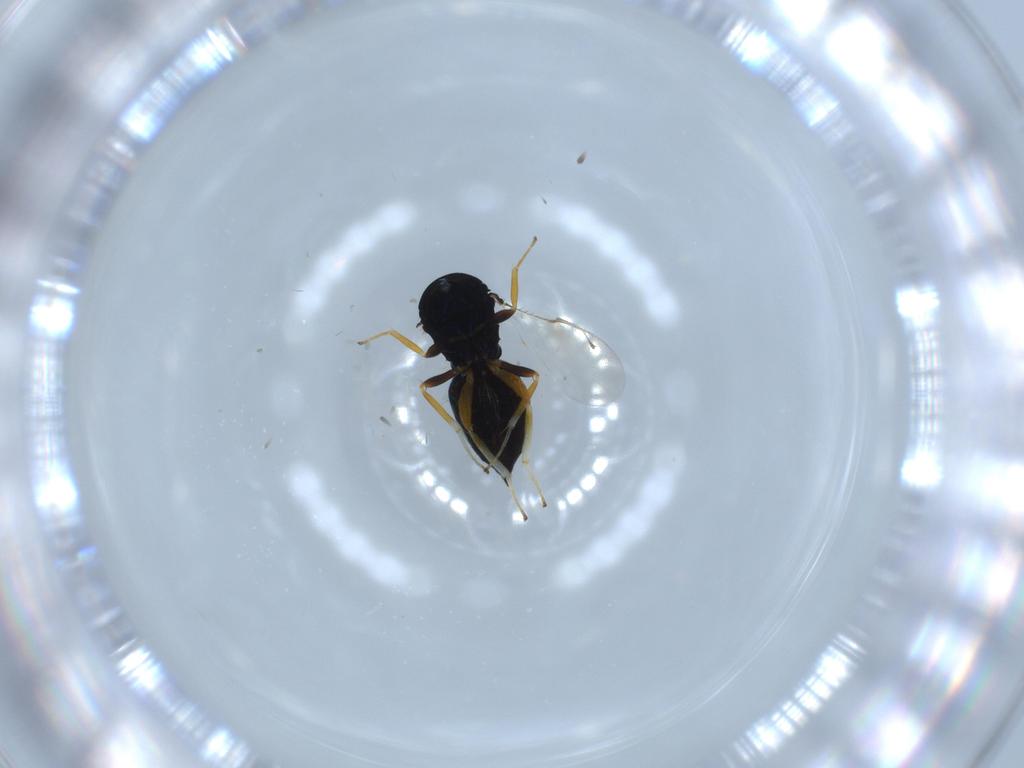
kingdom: Animalia
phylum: Arthropoda
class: Insecta
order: Hymenoptera
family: Pteromalidae
